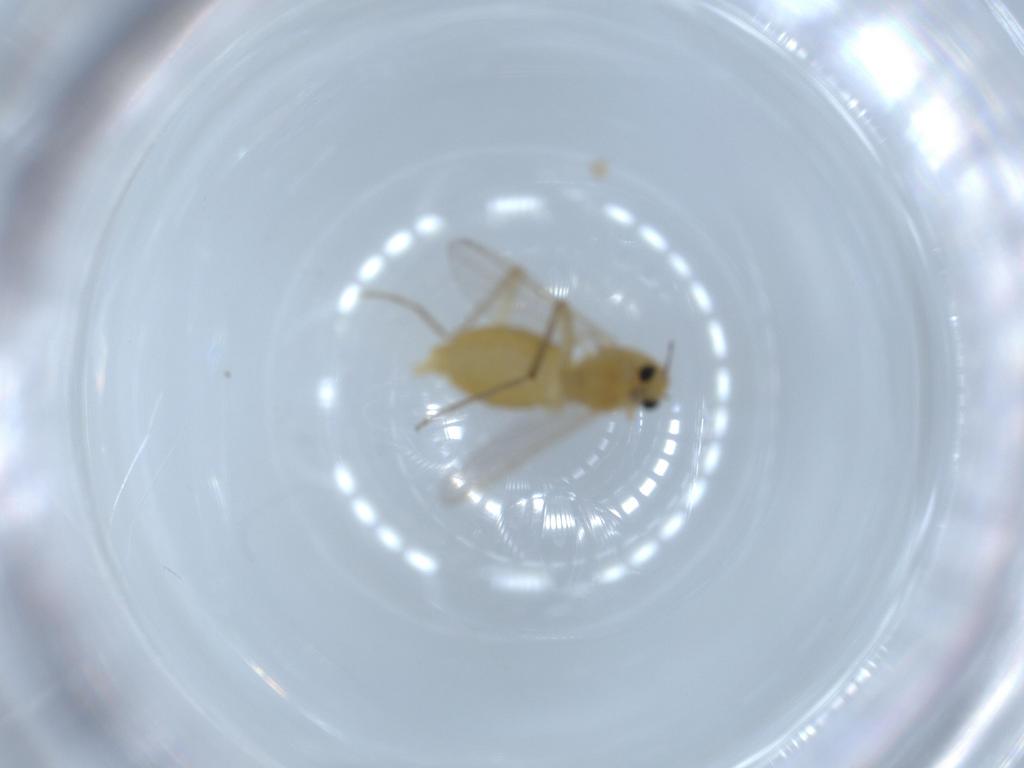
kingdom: Animalia
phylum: Arthropoda
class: Insecta
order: Diptera
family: Chironomidae
